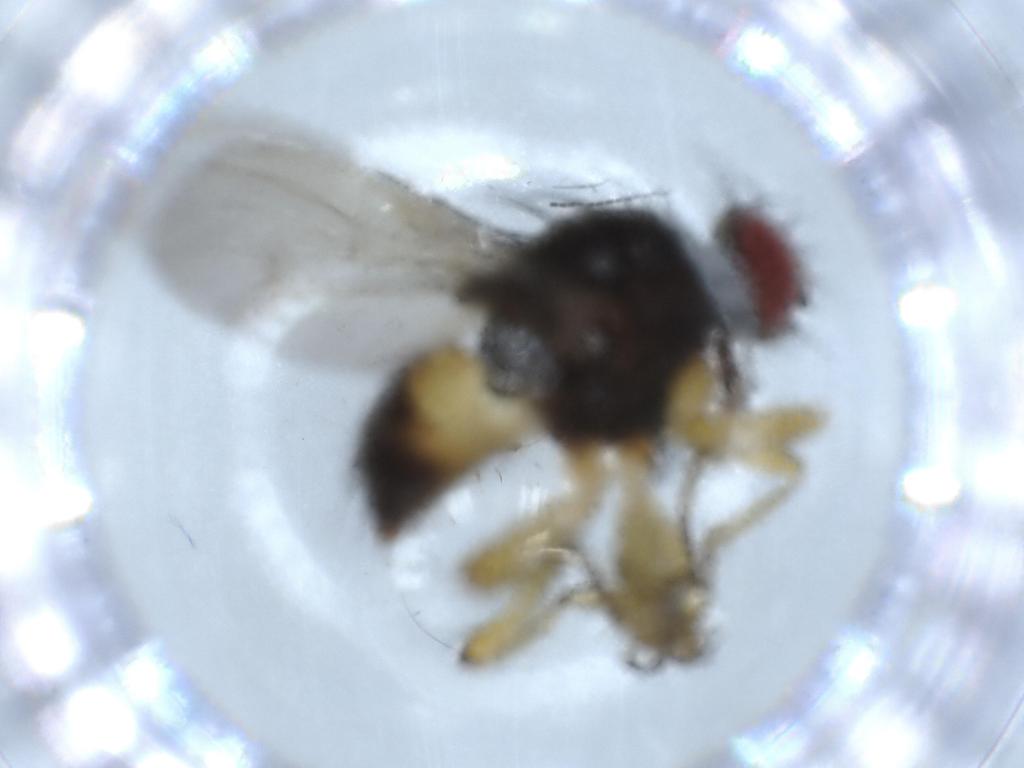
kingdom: Animalia
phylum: Arthropoda
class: Insecta
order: Diptera
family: Muscidae
